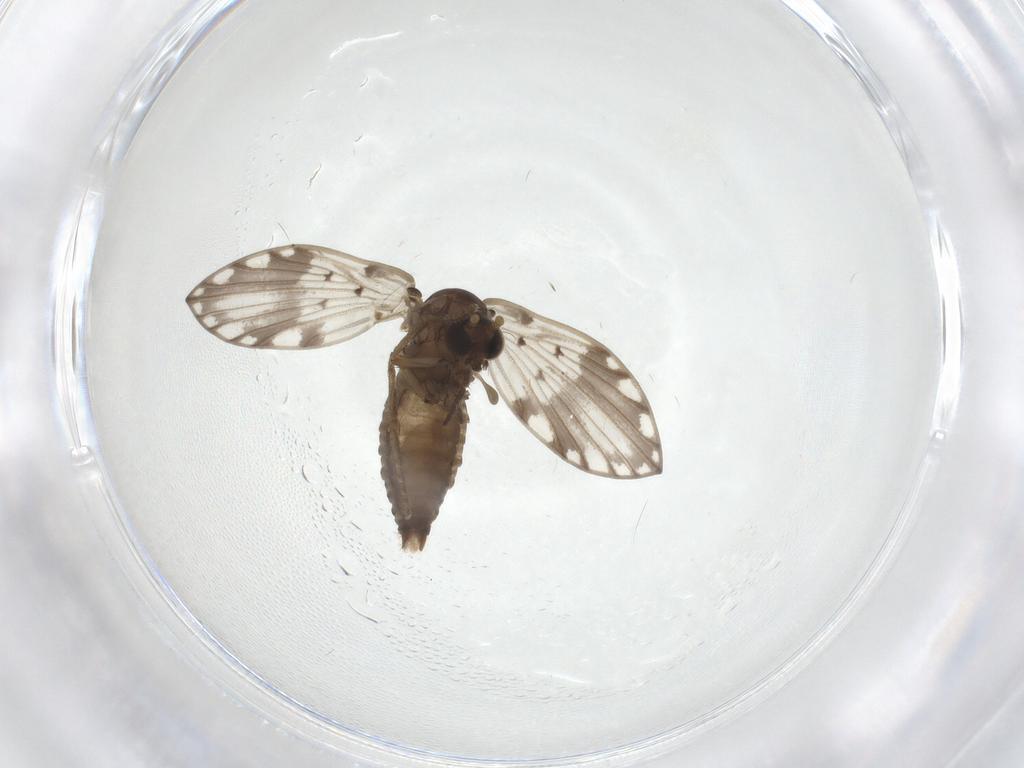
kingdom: Animalia
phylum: Arthropoda
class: Insecta
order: Diptera
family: Psychodidae
